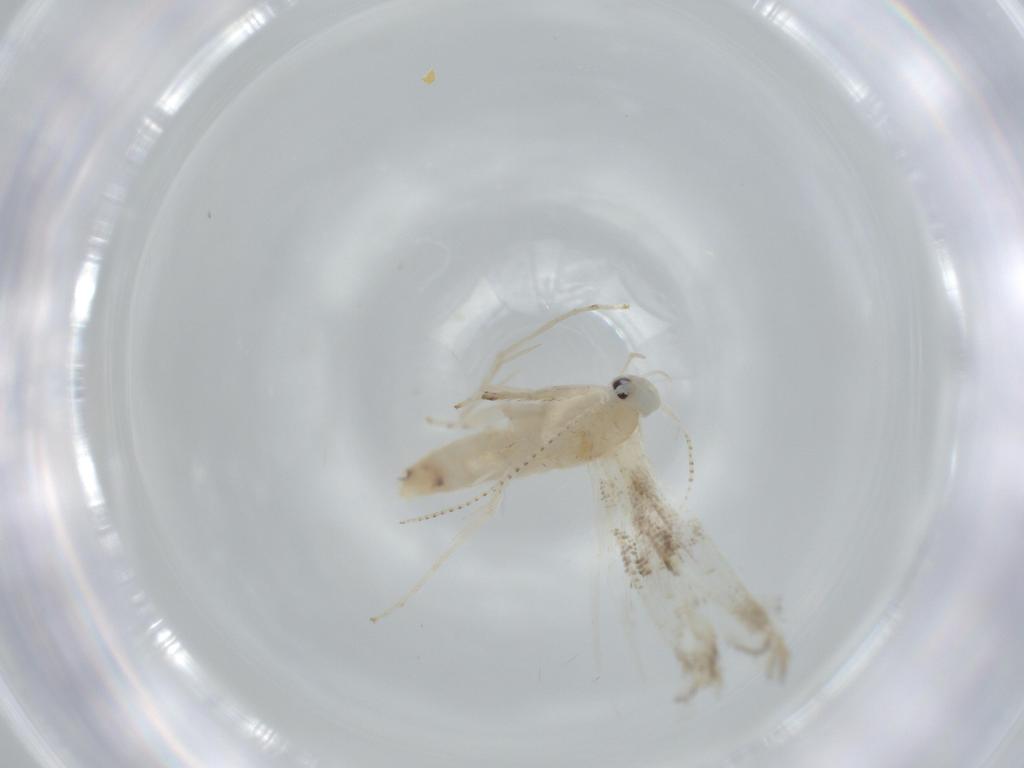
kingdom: Animalia
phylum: Arthropoda
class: Insecta
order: Lepidoptera
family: Gracillariidae
